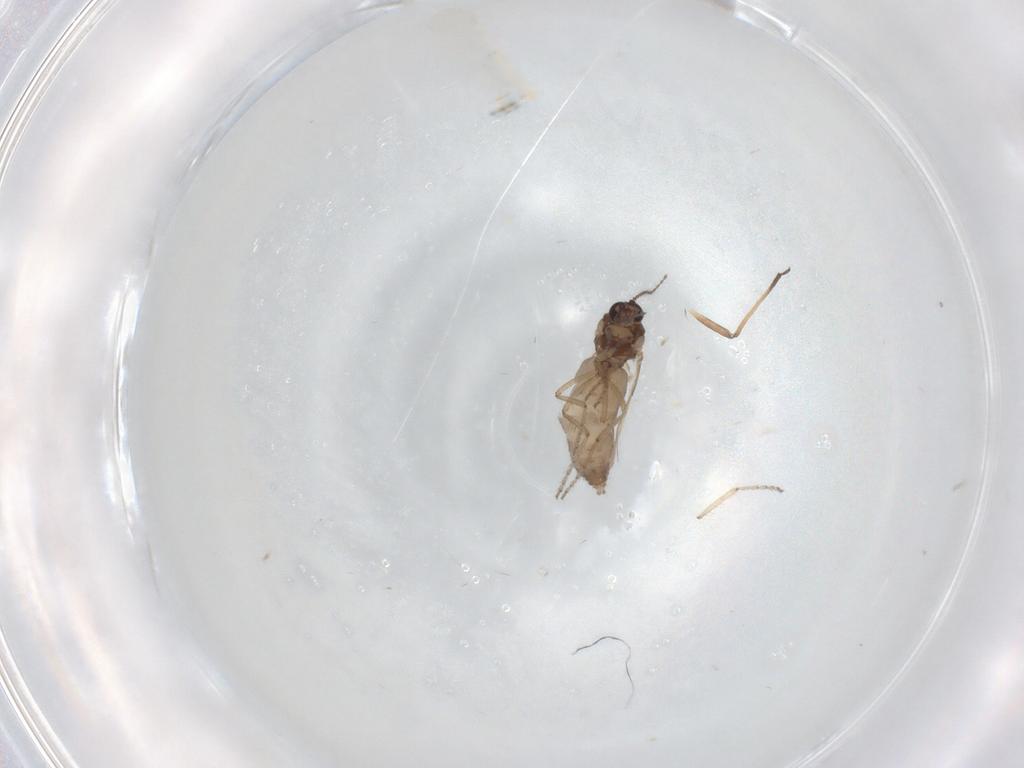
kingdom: Animalia
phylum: Arthropoda
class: Insecta
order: Diptera
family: Ceratopogonidae
